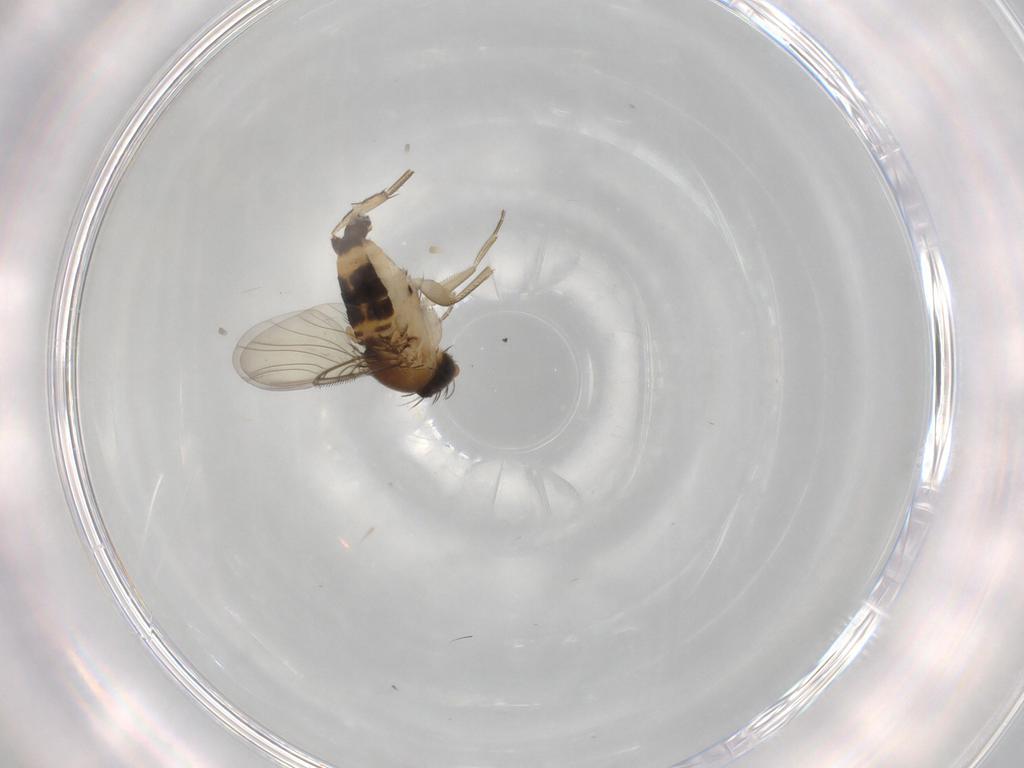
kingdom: Animalia
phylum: Arthropoda
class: Insecta
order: Diptera
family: Phoridae
